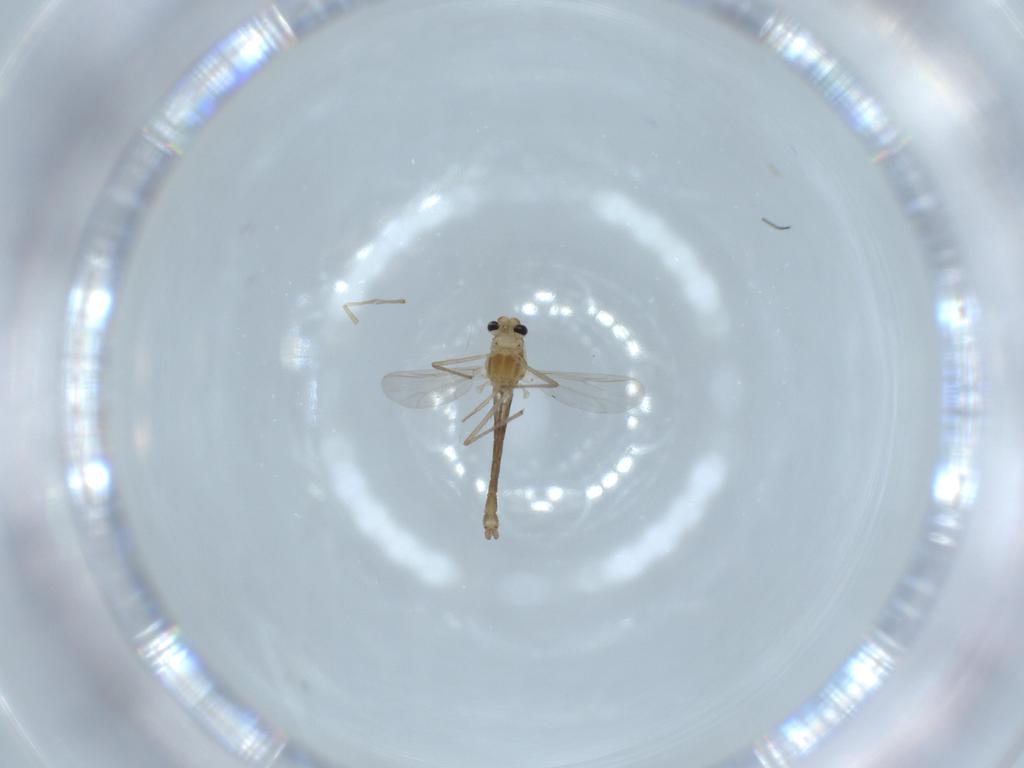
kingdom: Animalia
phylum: Arthropoda
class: Insecta
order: Diptera
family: Chironomidae
